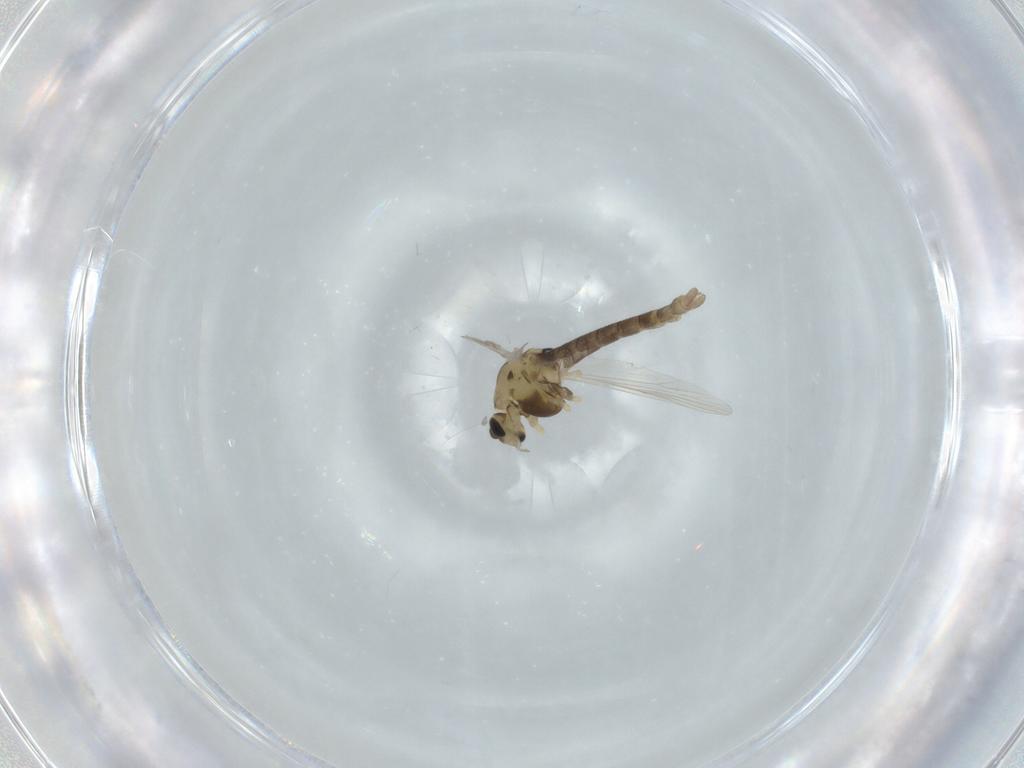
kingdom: Animalia
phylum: Arthropoda
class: Insecta
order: Diptera
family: Chironomidae
